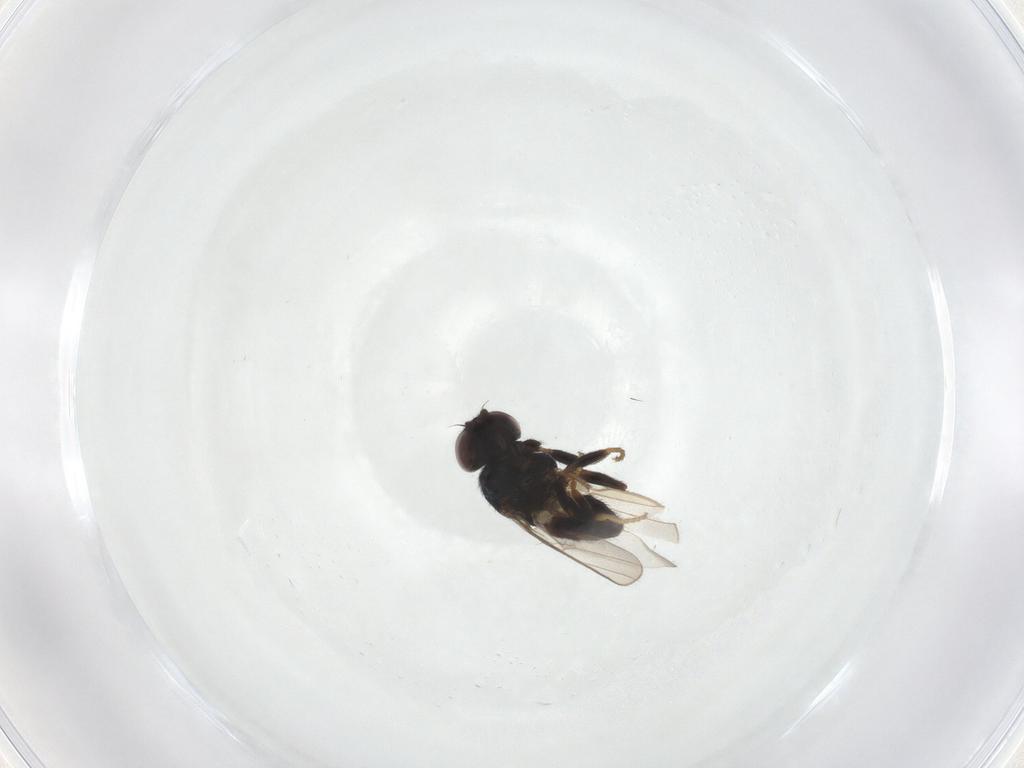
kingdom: Animalia
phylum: Arthropoda
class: Insecta
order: Diptera
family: Chloropidae
